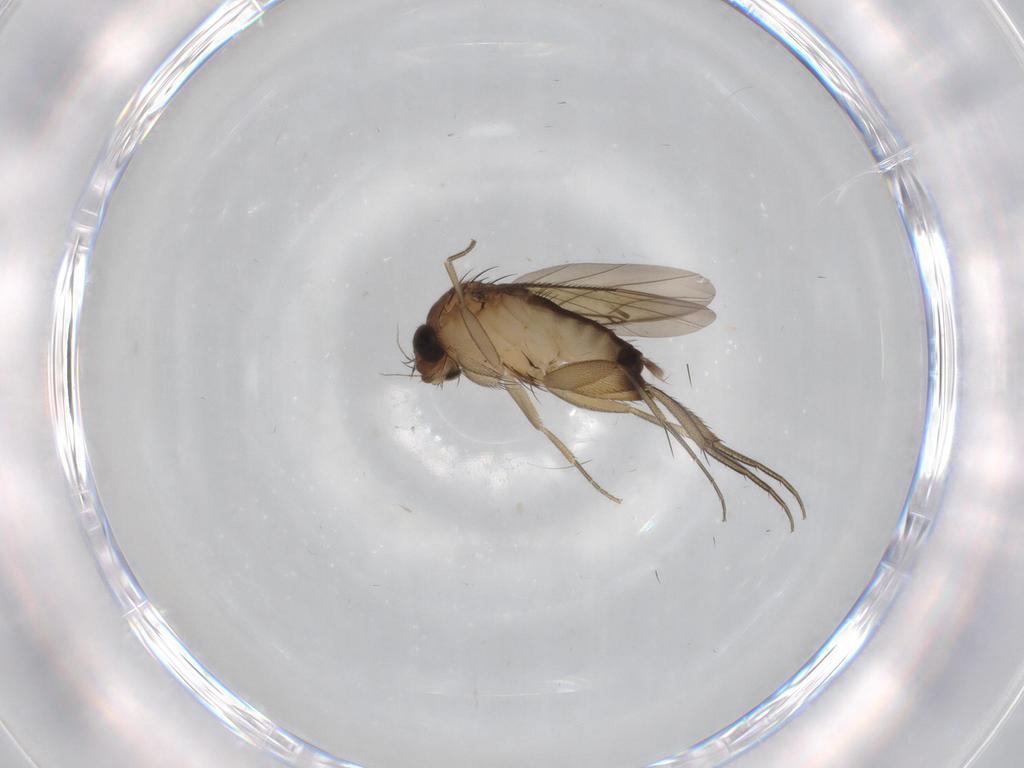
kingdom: Animalia
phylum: Arthropoda
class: Insecta
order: Diptera
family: Phoridae
